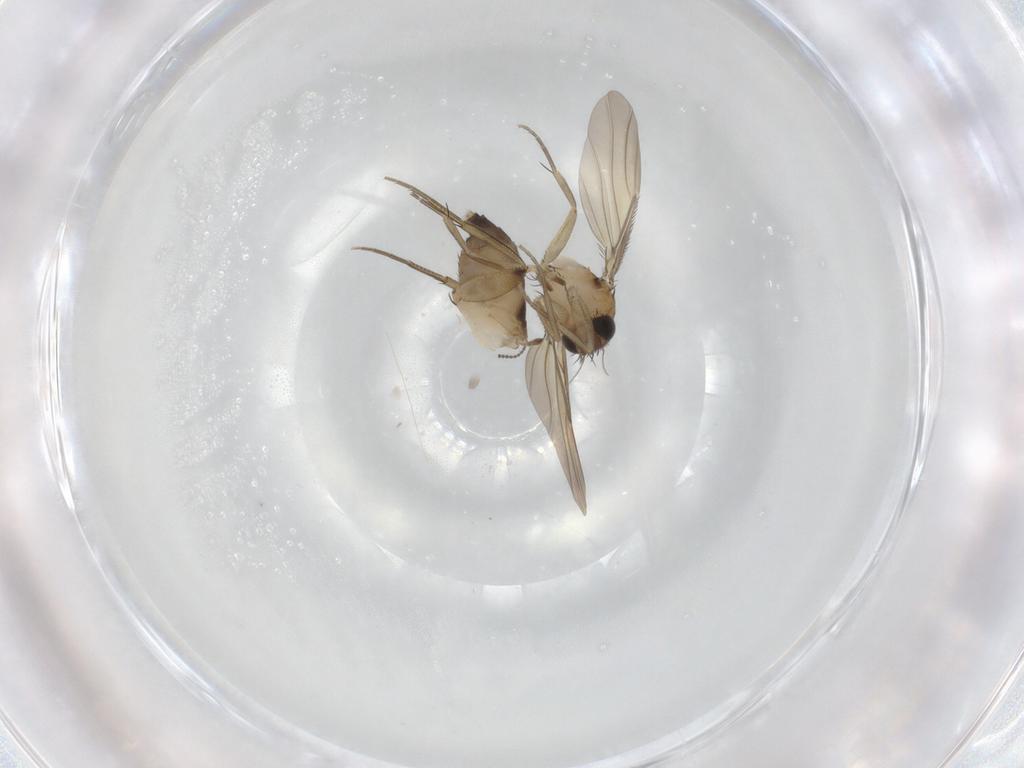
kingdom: Animalia
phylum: Arthropoda
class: Insecta
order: Diptera
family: Phoridae
